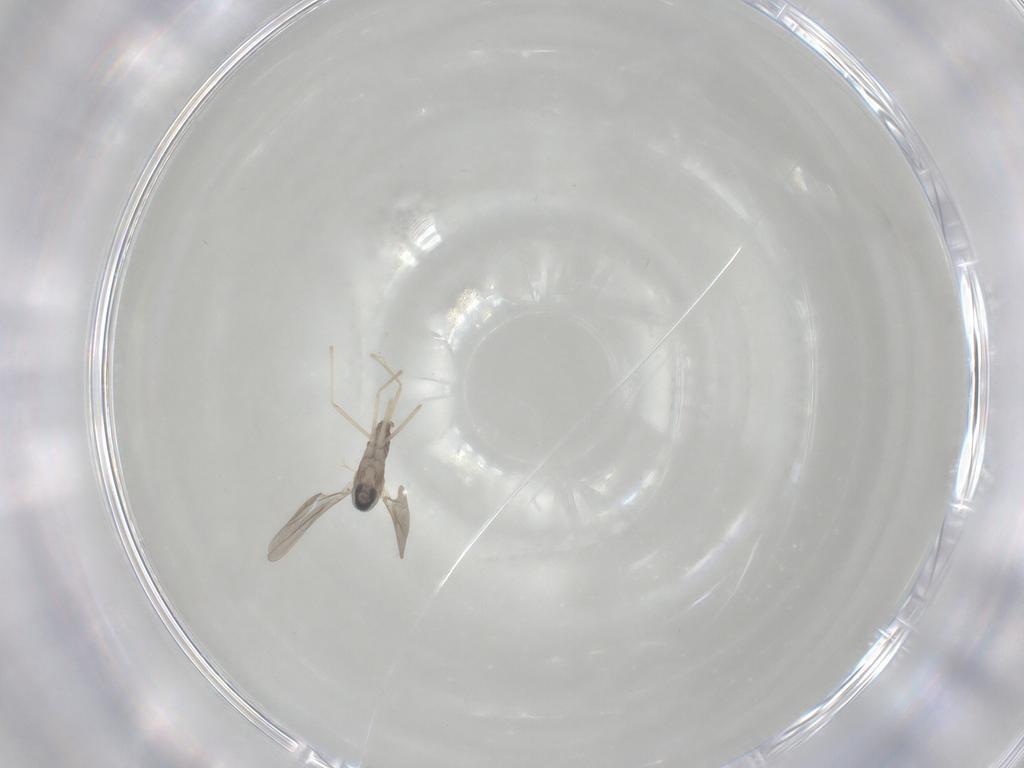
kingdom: Animalia
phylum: Arthropoda
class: Insecta
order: Diptera
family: Cecidomyiidae
